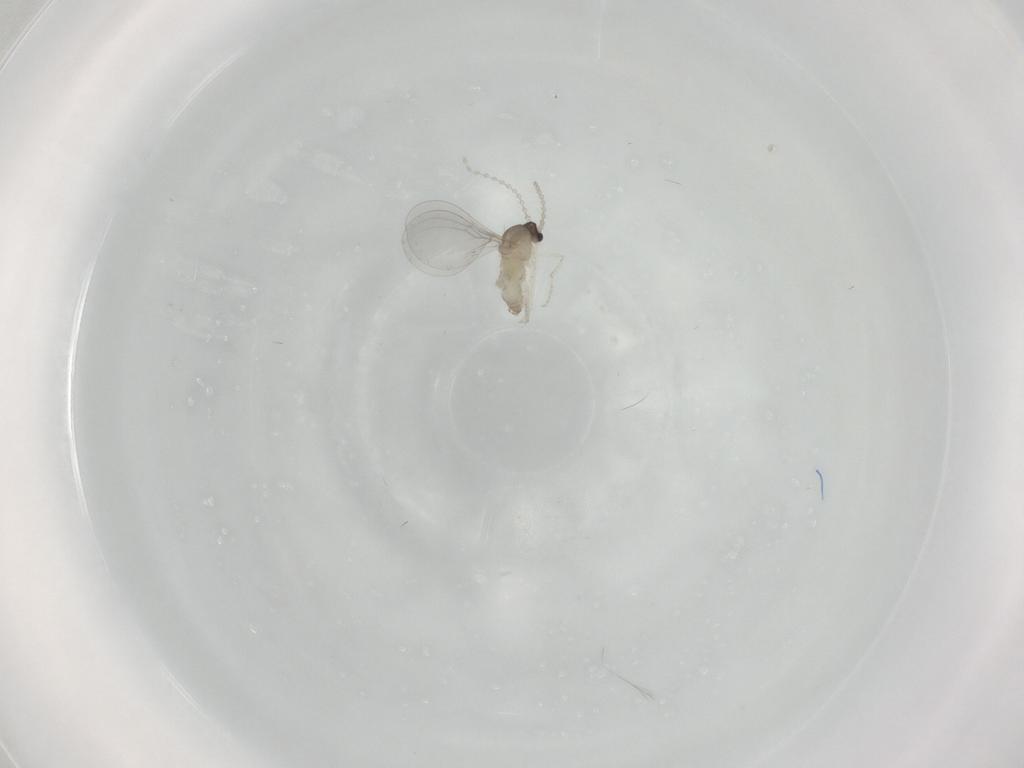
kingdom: Animalia
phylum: Arthropoda
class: Insecta
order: Diptera
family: Cecidomyiidae
